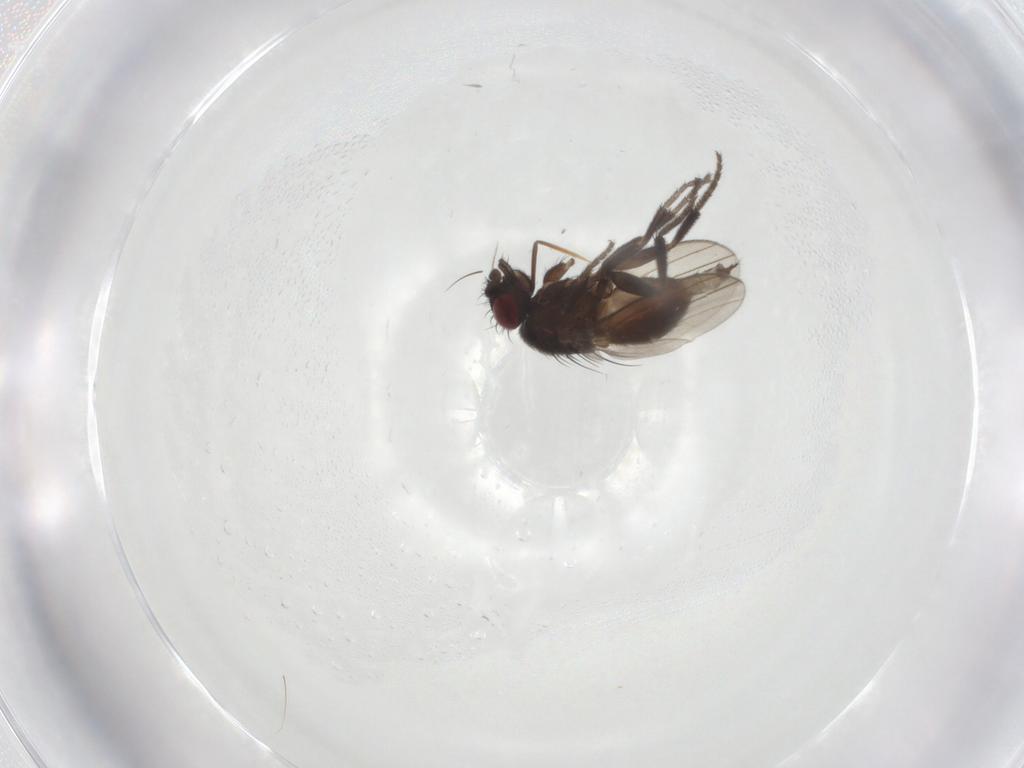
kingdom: Animalia
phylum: Arthropoda
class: Insecta
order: Diptera
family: Milichiidae
